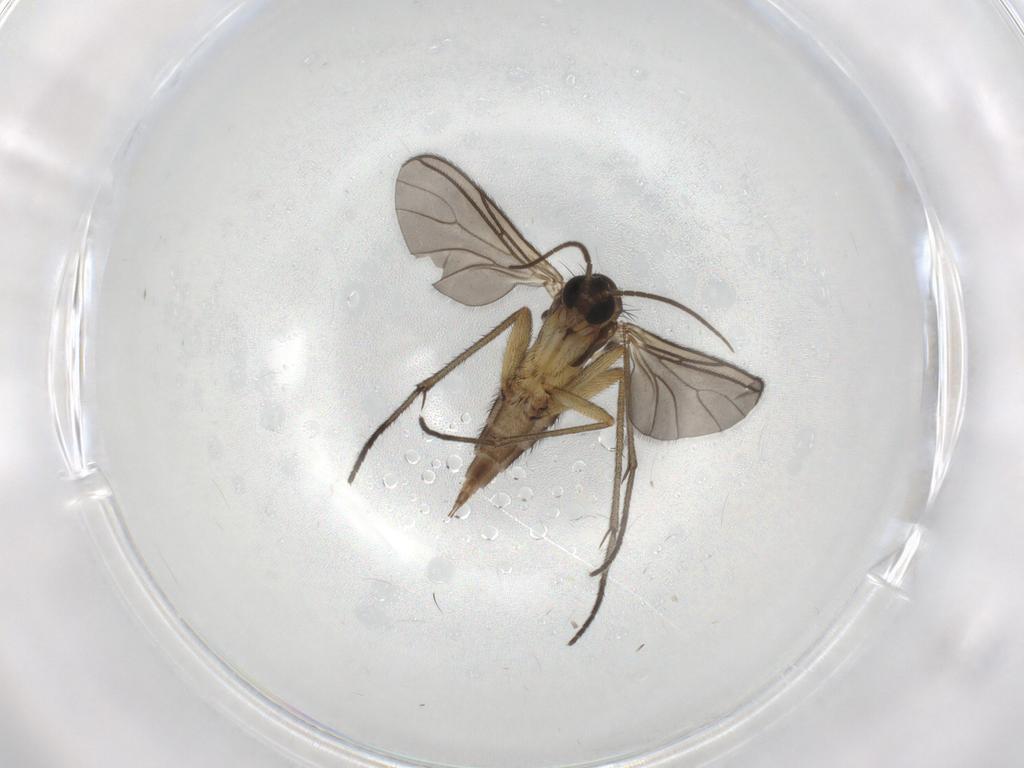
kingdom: Animalia
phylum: Arthropoda
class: Insecta
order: Diptera
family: Sciaridae
